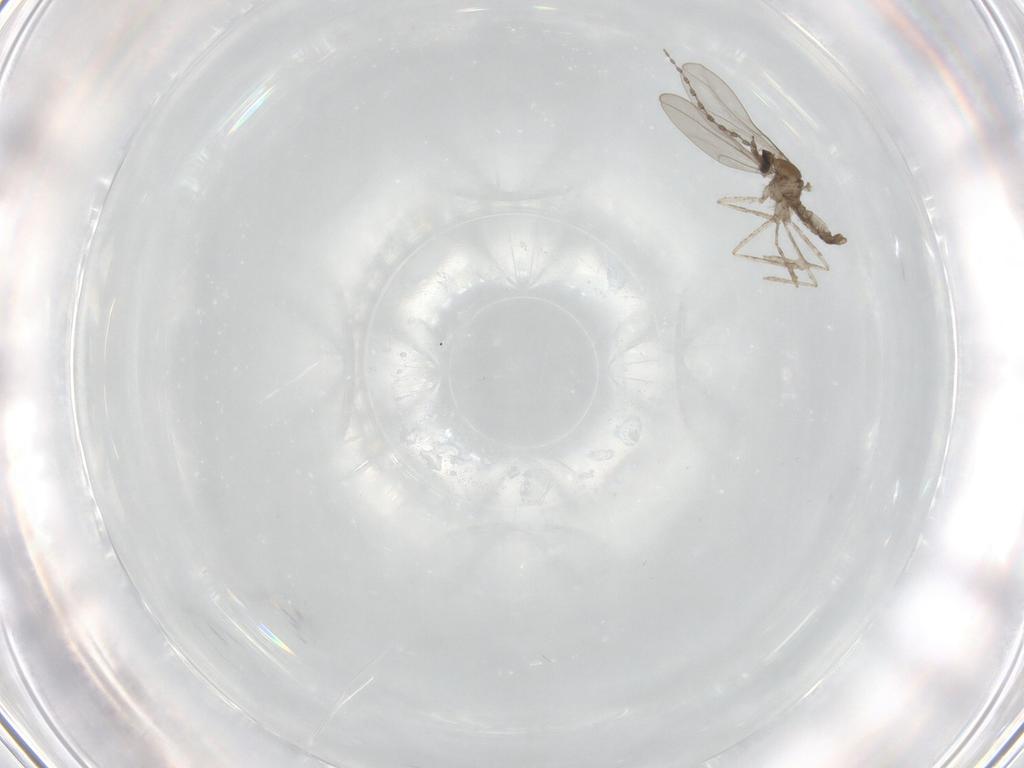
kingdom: Animalia
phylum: Arthropoda
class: Insecta
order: Diptera
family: Cecidomyiidae
